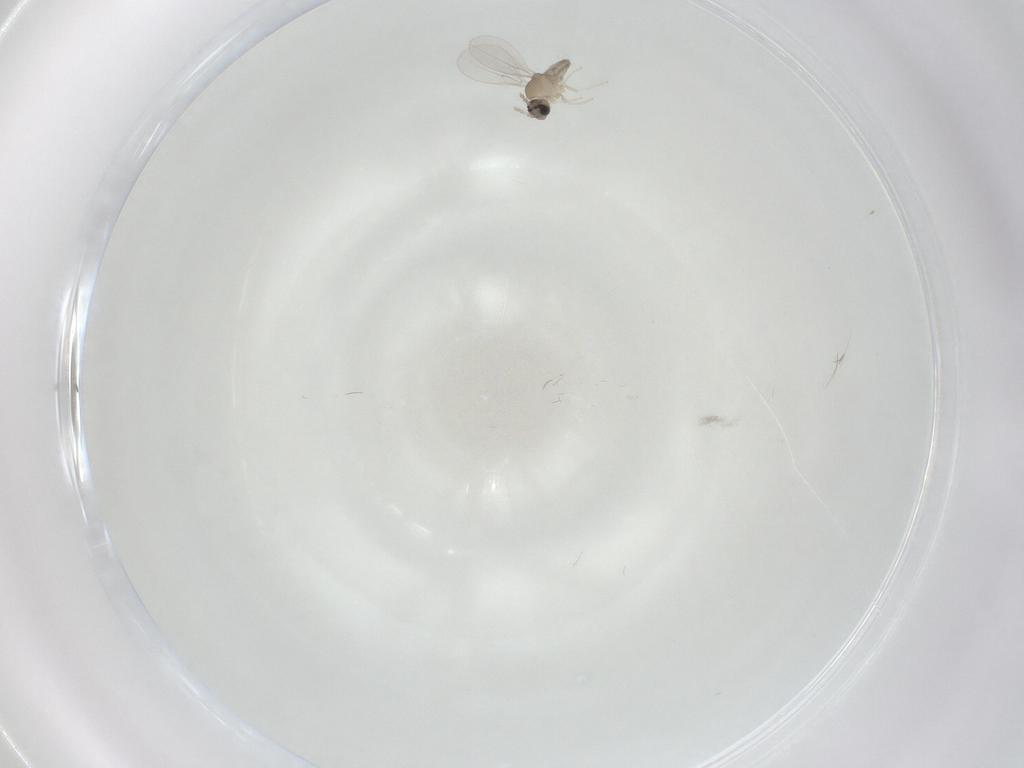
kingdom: Animalia
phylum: Arthropoda
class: Insecta
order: Diptera
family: Cecidomyiidae
